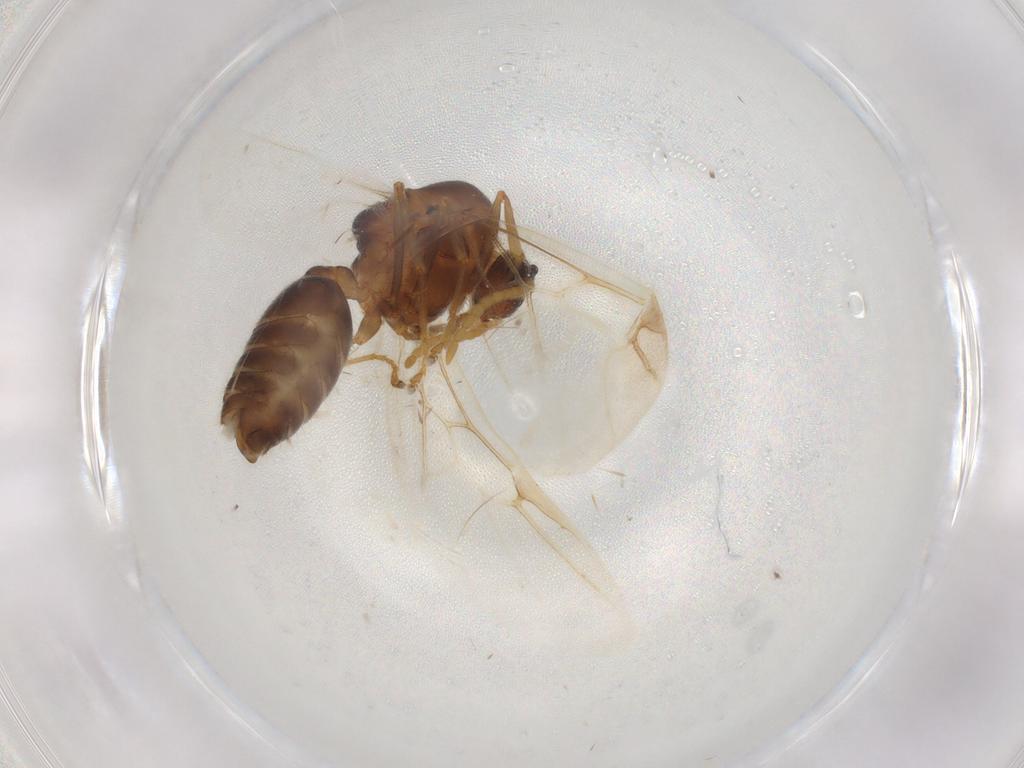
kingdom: Animalia
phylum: Arthropoda
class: Insecta
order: Hymenoptera
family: Formicidae
